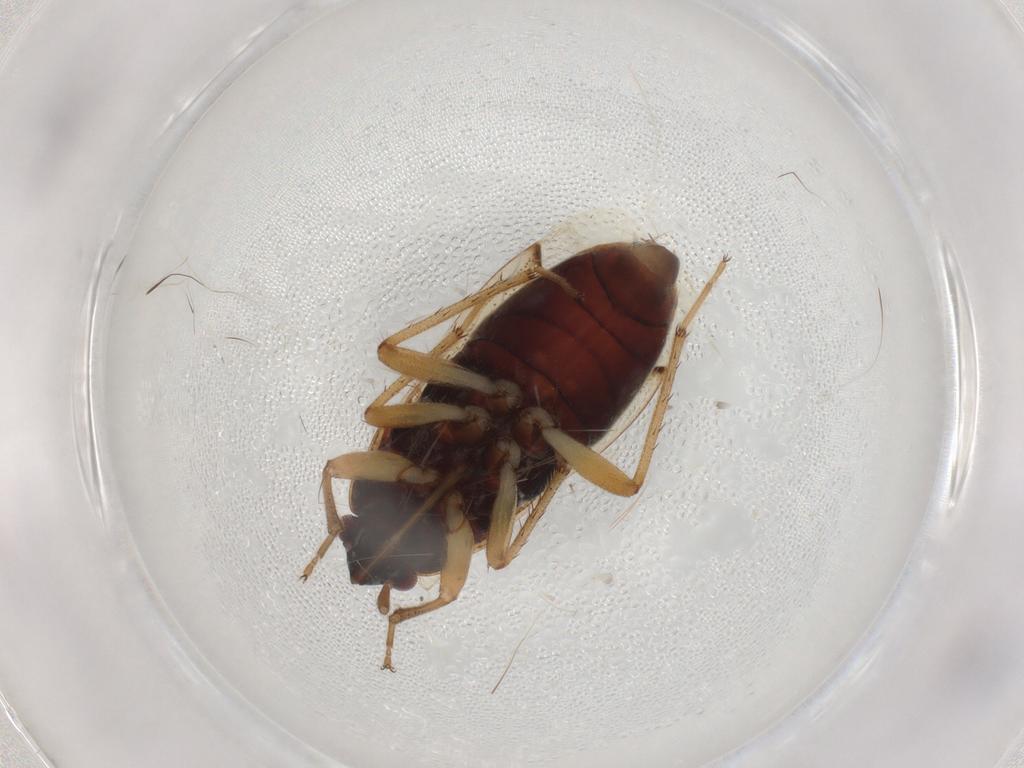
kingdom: Animalia
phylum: Arthropoda
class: Insecta
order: Hemiptera
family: Rhyparochromidae
